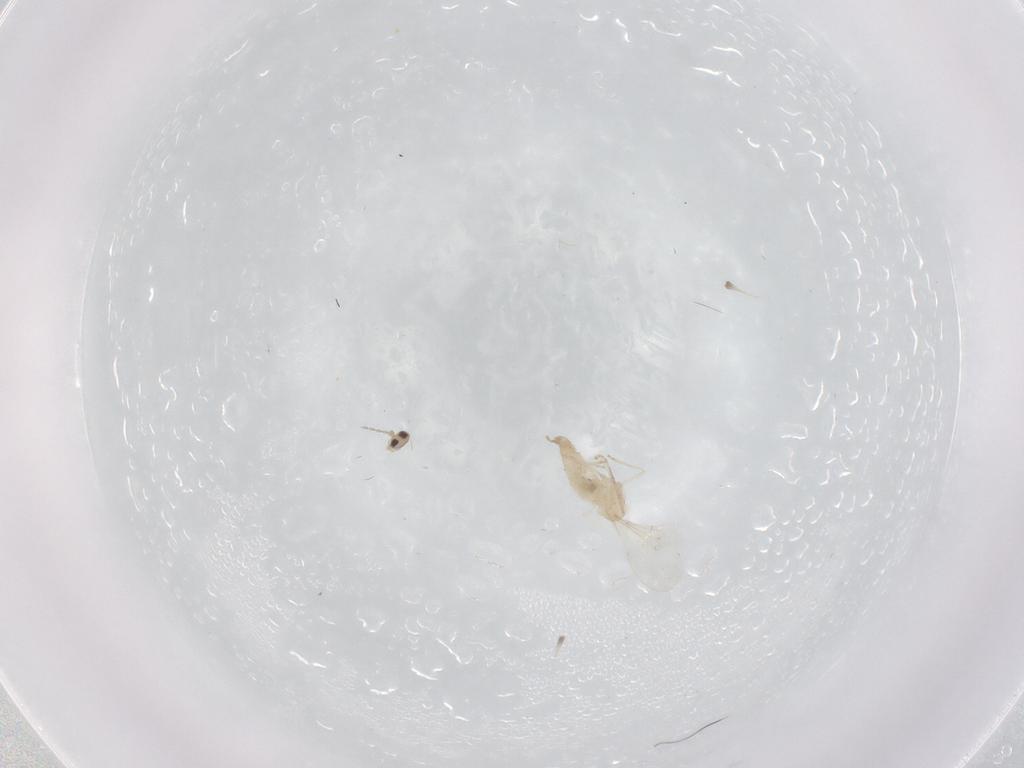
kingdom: Animalia
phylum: Arthropoda
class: Insecta
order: Diptera
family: Cecidomyiidae
